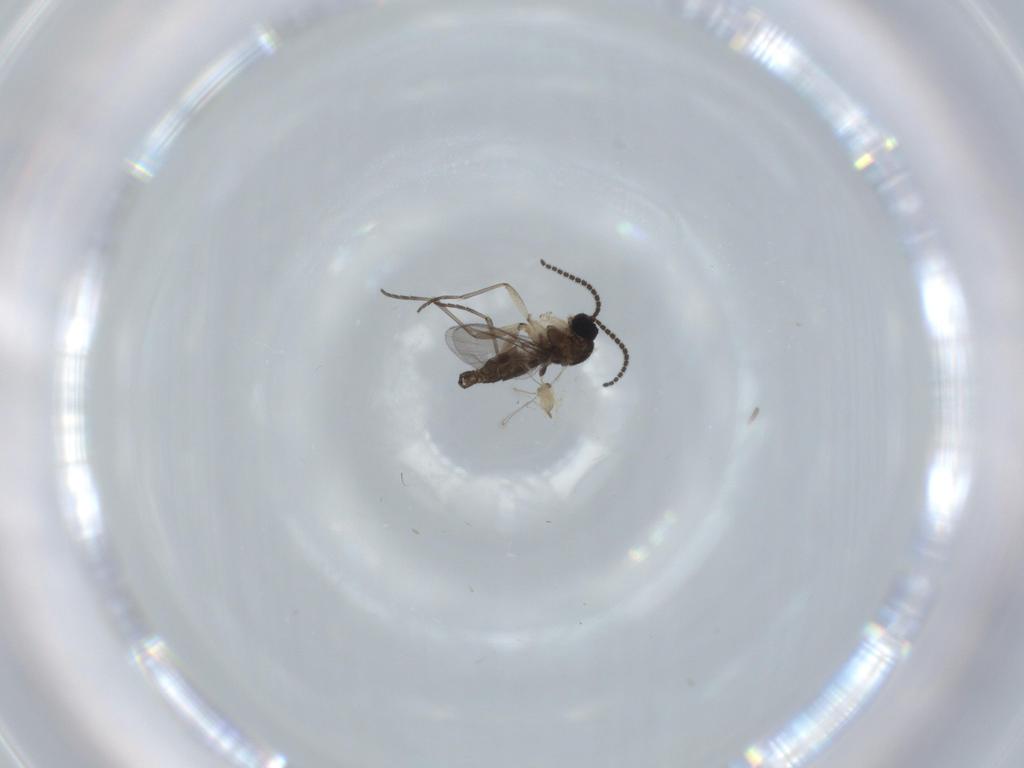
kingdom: Animalia
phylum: Arthropoda
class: Insecta
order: Diptera
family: Sciaridae
